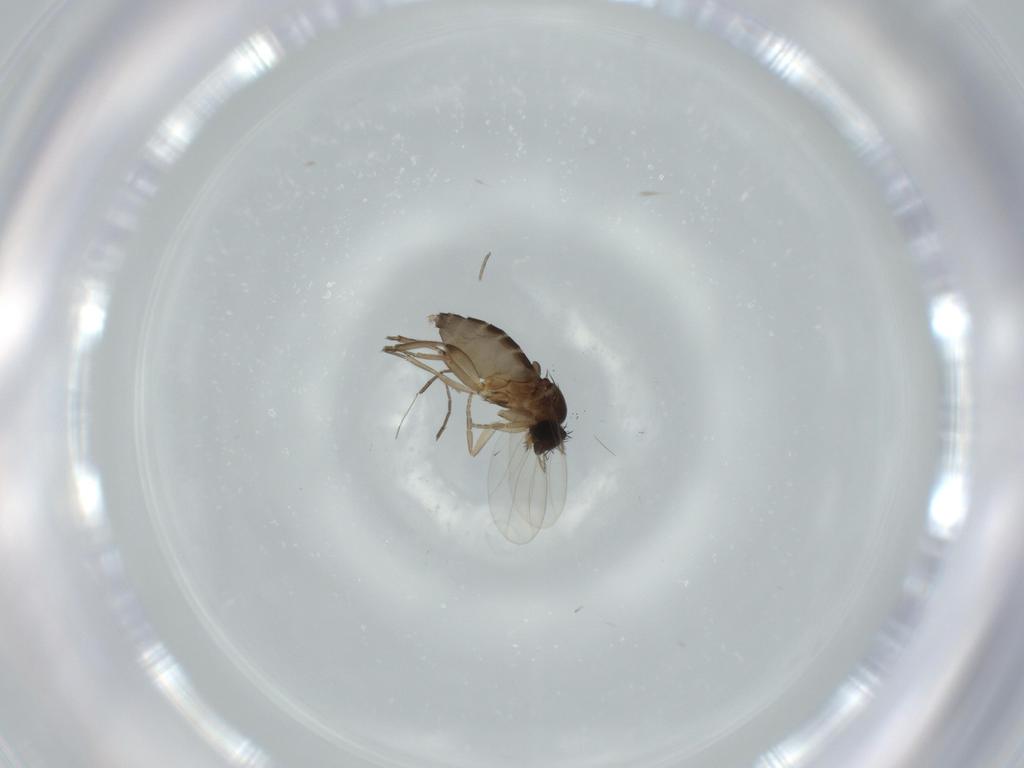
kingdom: Animalia
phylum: Arthropoda
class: Insecta
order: Diptera
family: Phoridae
